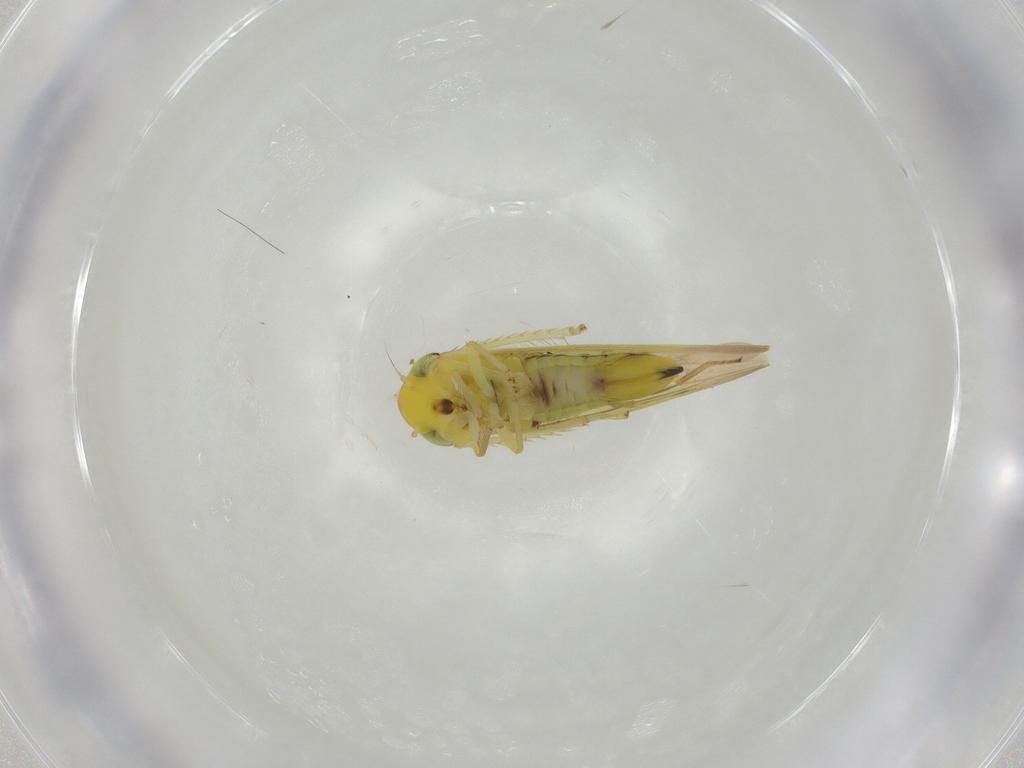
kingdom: Animalia
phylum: Arthropoda
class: Insecta
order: Hemiptera
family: Cicadellidae
